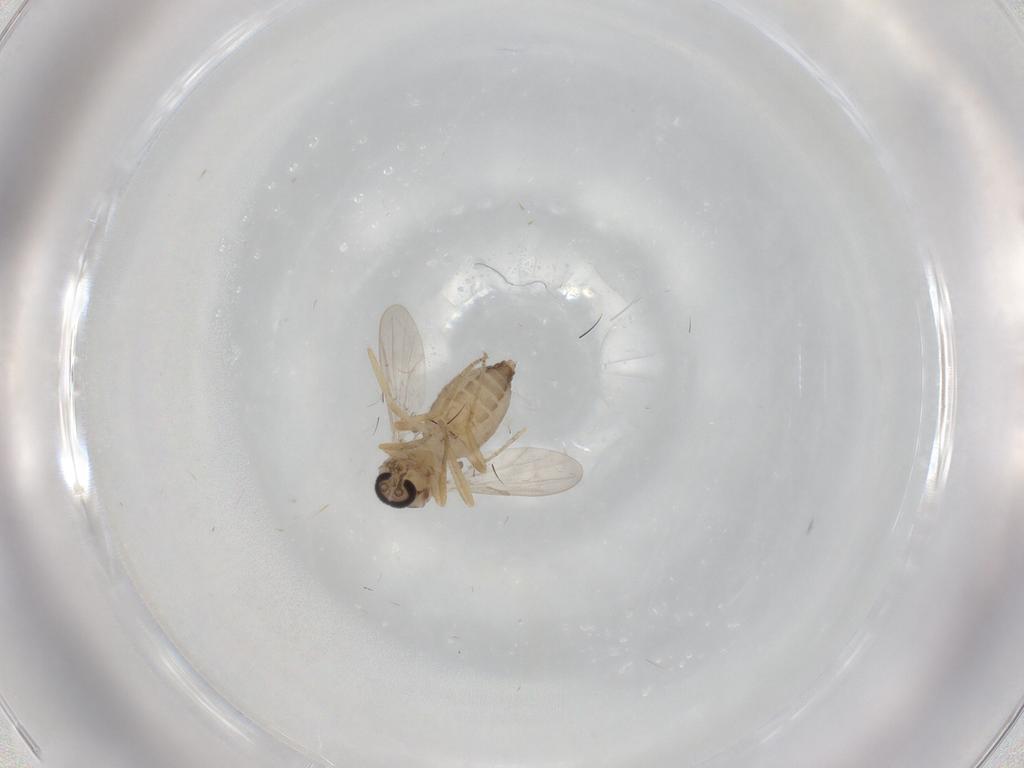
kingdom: Animalia
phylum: Arthropoda
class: Insecta
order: Diptera
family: Ceratopogonidae
